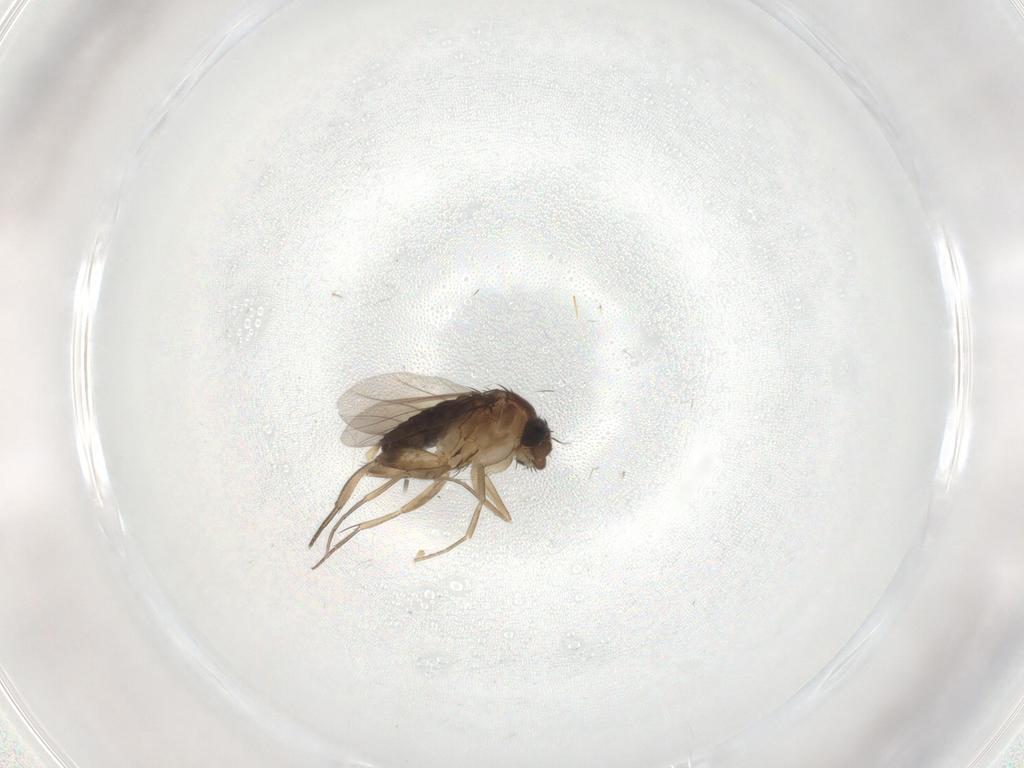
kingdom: Animalia
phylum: Arthropoda
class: Insecta
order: Diptera
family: Phoridae
